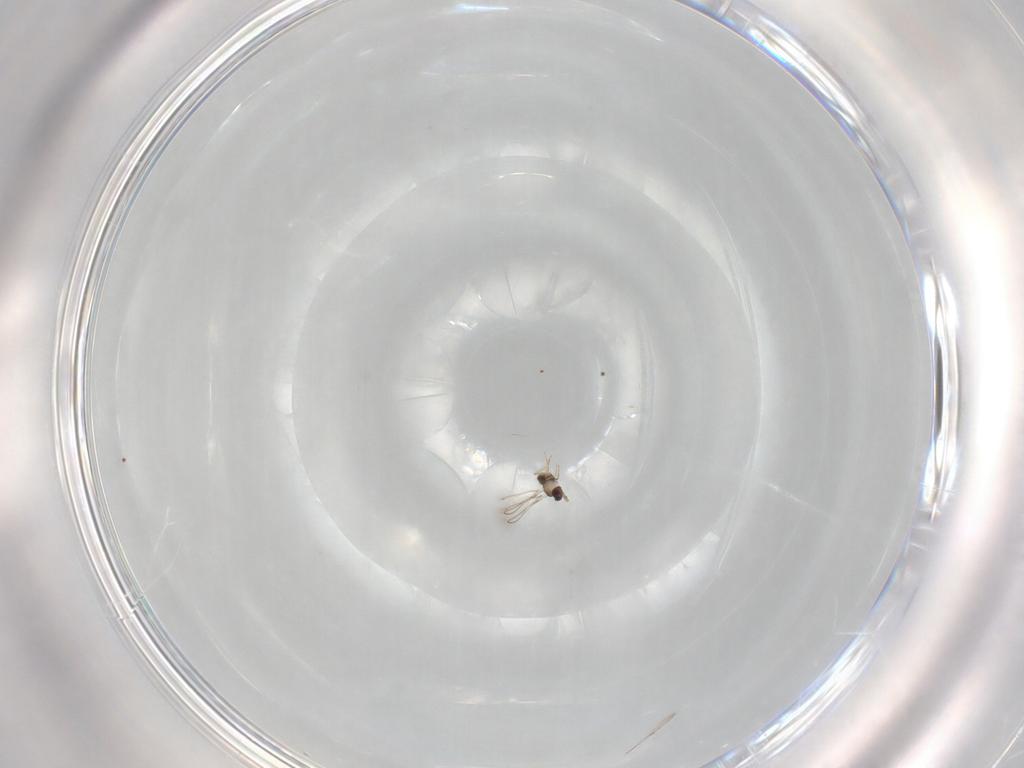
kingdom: Animalia
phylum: Arthropoda
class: Insecta
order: Hymenoptera
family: Mymaridae
